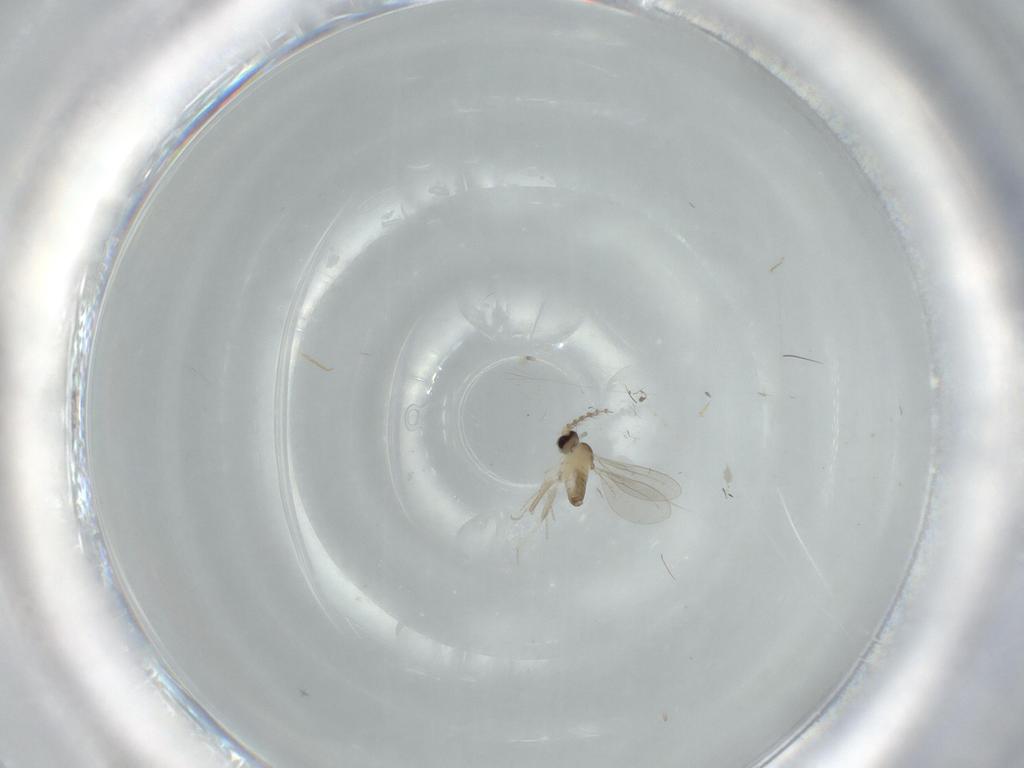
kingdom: Animalia
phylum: Arthropoda
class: Insecta
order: Diptera
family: Cecidomyiidae
